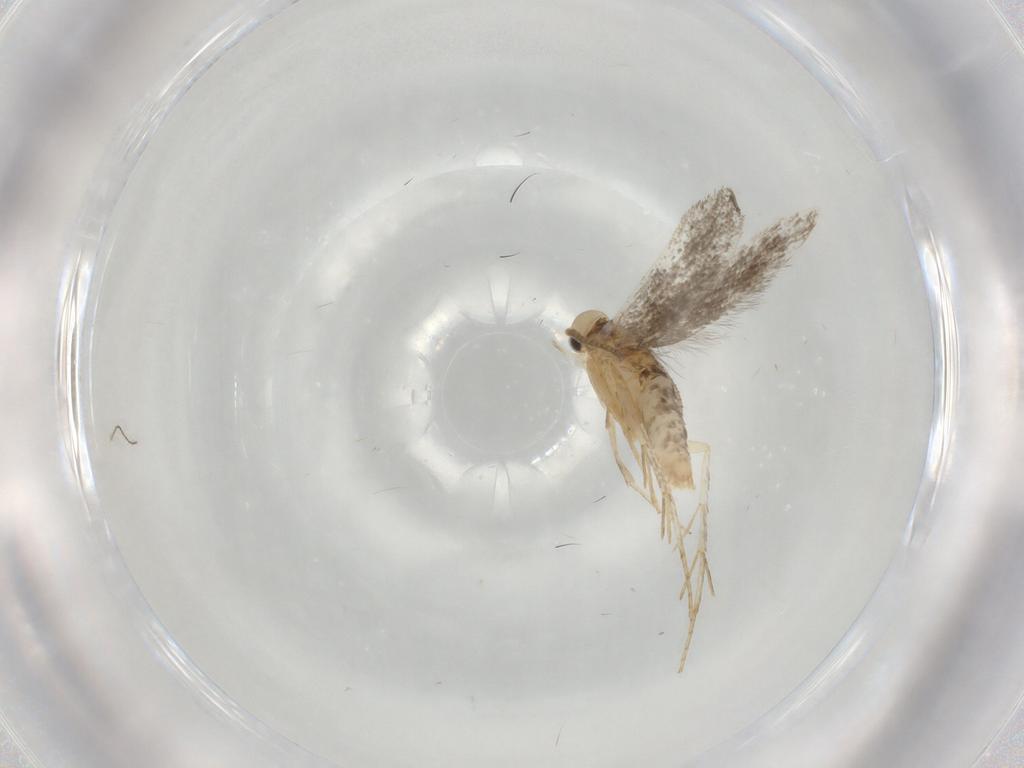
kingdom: Animalia
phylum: Arthropoda
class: Insecta
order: Lepidoptera
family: Schreckensteiniidae
